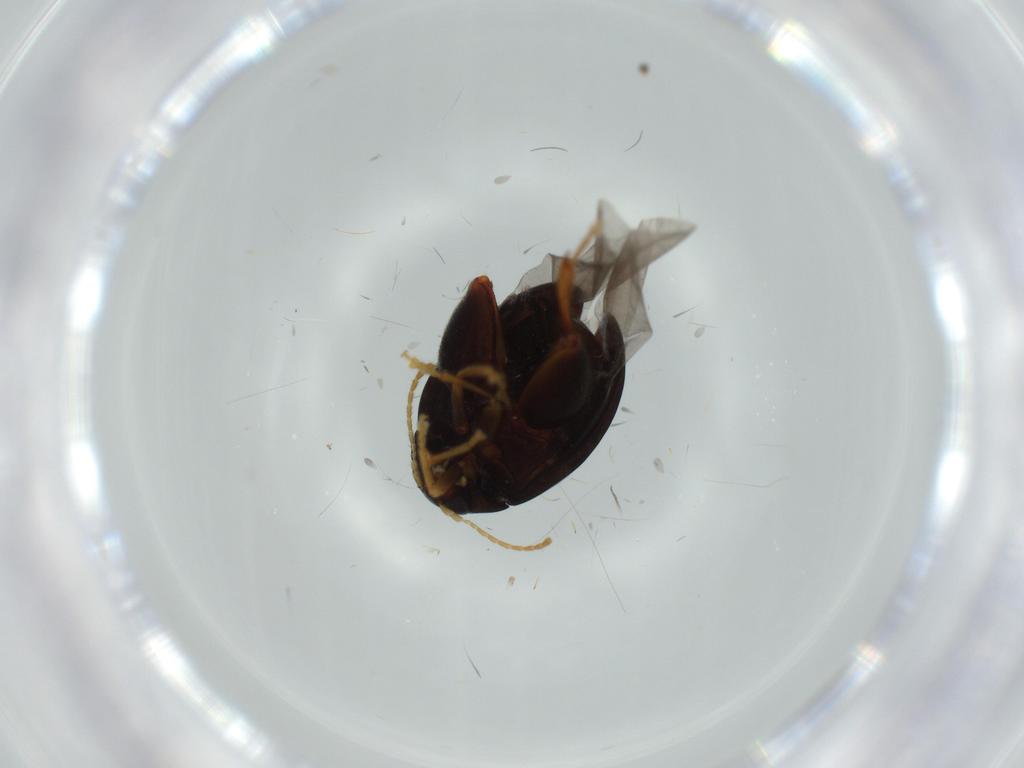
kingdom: Animalia
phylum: Arthropoda
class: Insecta
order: Coleoptera
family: Chrysomelidae
